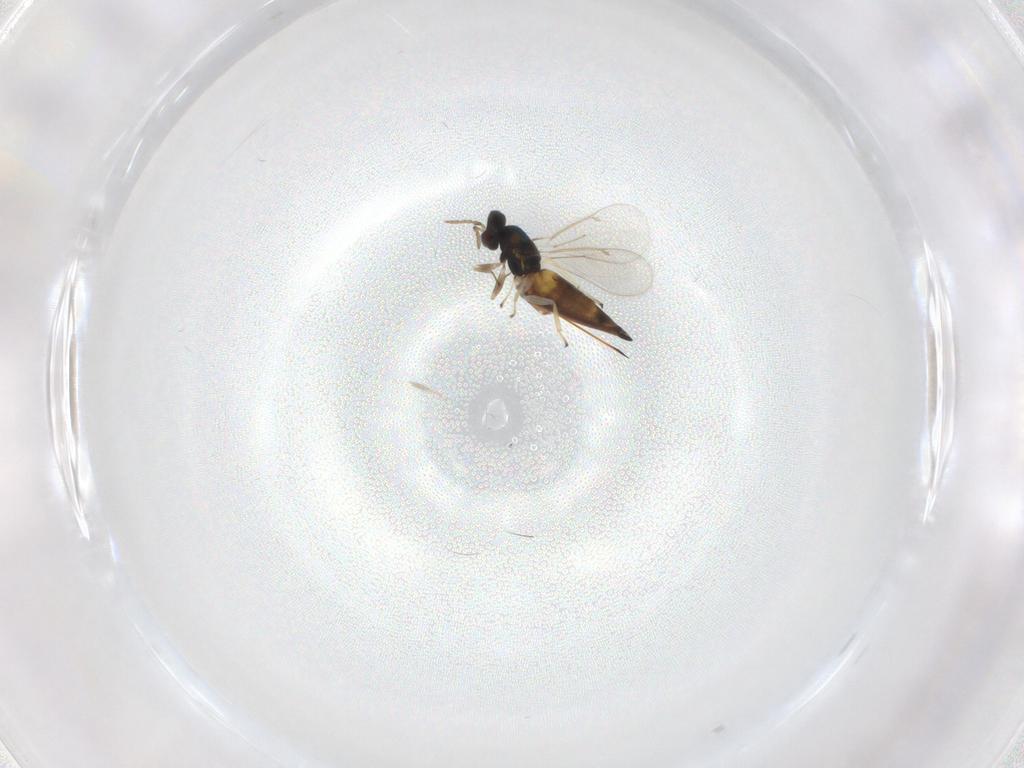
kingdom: Animalia
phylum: Arthropoda
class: Insecta
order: Hymenoptera
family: Eulophidae
